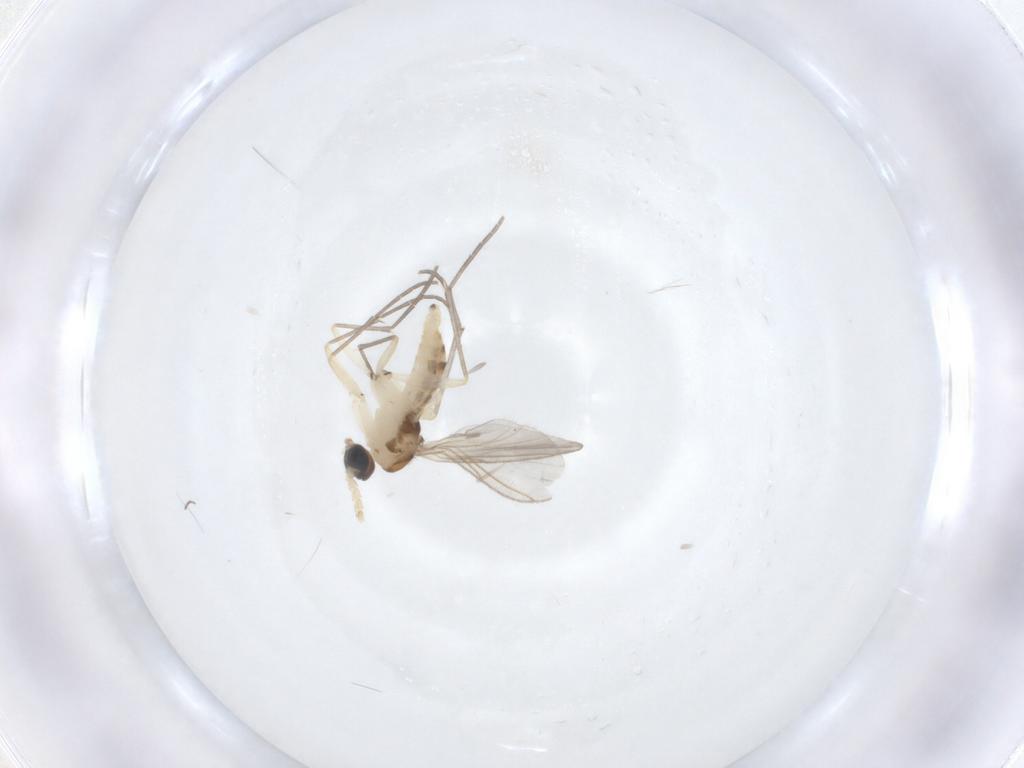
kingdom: Animalia
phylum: Arthropoda
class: Insecta
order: Diptera
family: Sciaridae
